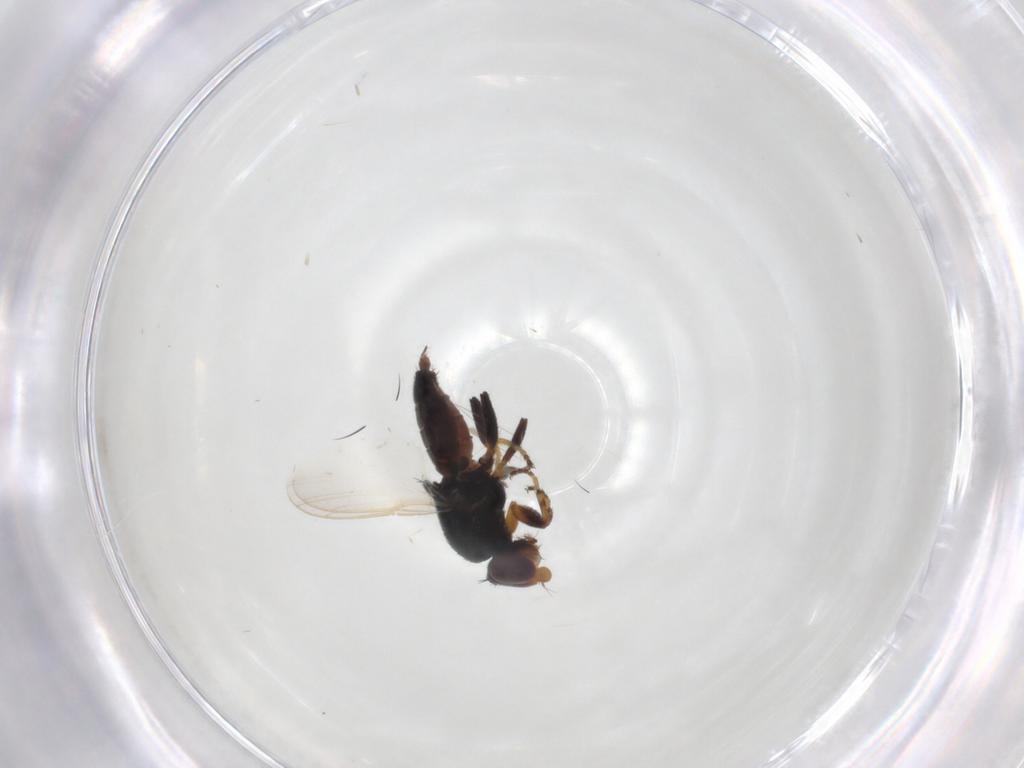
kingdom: Animalia
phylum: Arthropoda
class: Insecta
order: Diptera
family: Chloropidae
